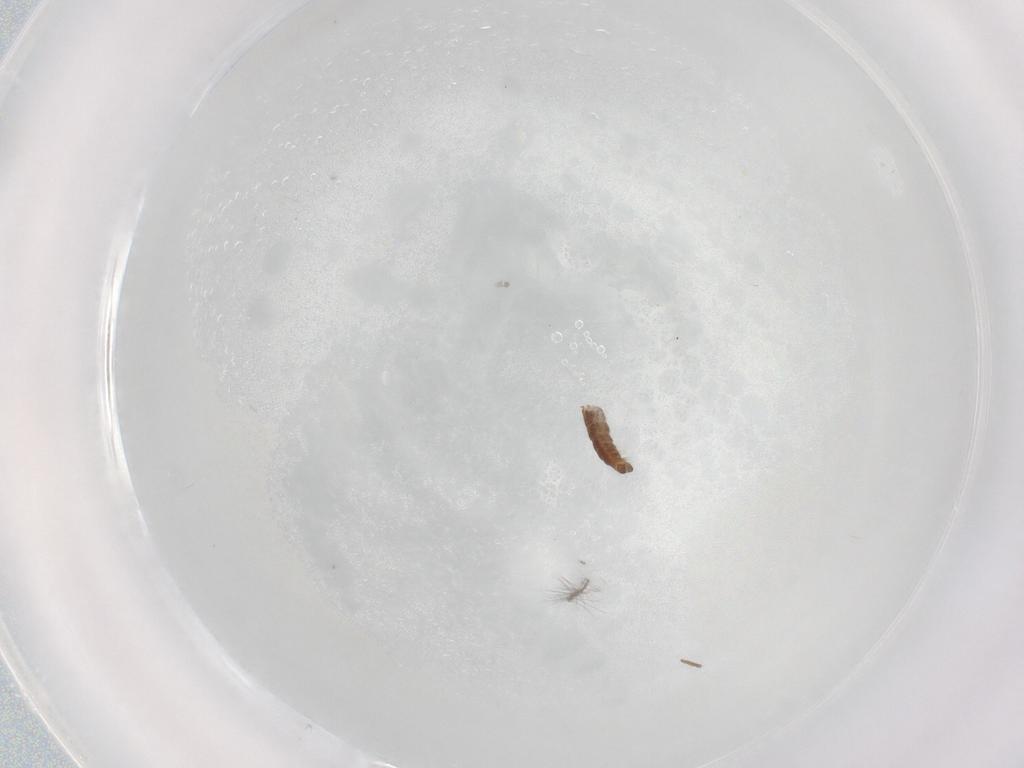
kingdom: Animalia
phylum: Arthropoda
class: Insecta
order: Diptera
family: Ceratopogonidae
